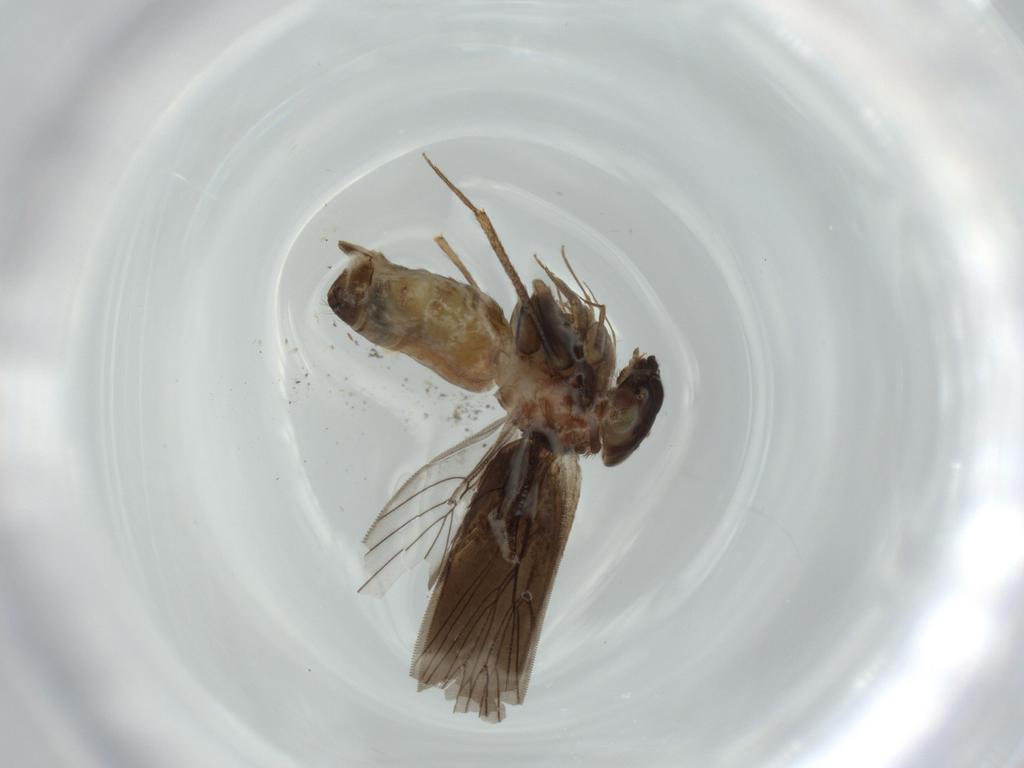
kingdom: Animalia
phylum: Arthropoda
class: Insecta
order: Psocodea
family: Lepidopsocidae
